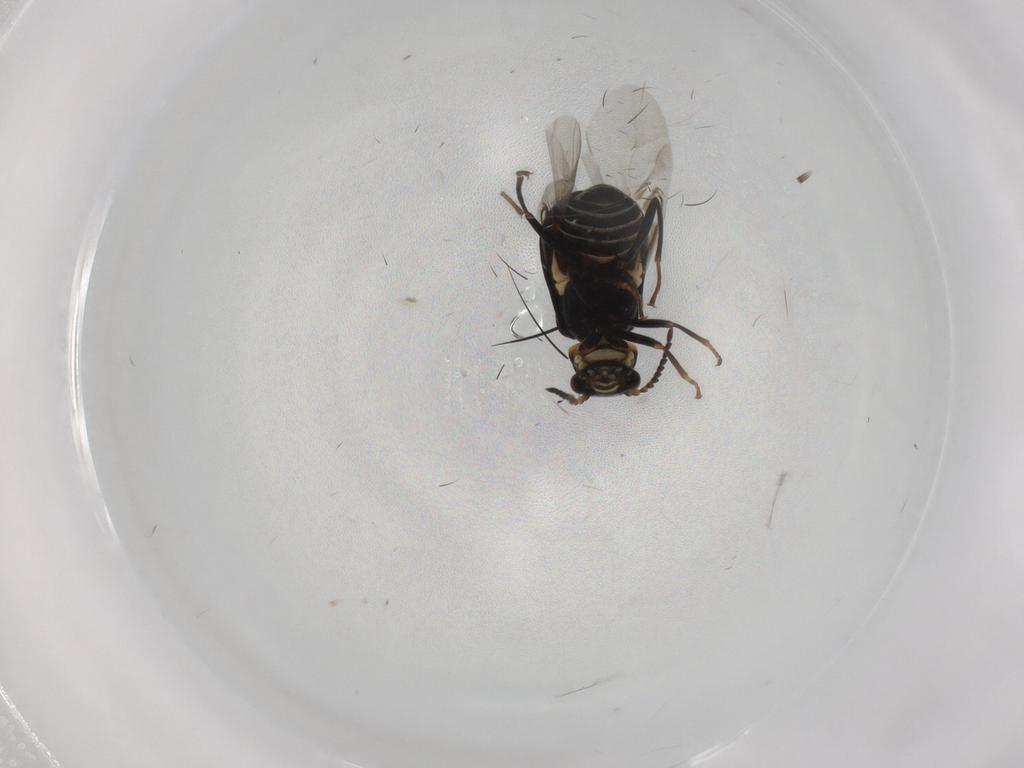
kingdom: Animalia
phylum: Arthropoda
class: Insecta
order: Coleoptera
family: Melyridae
